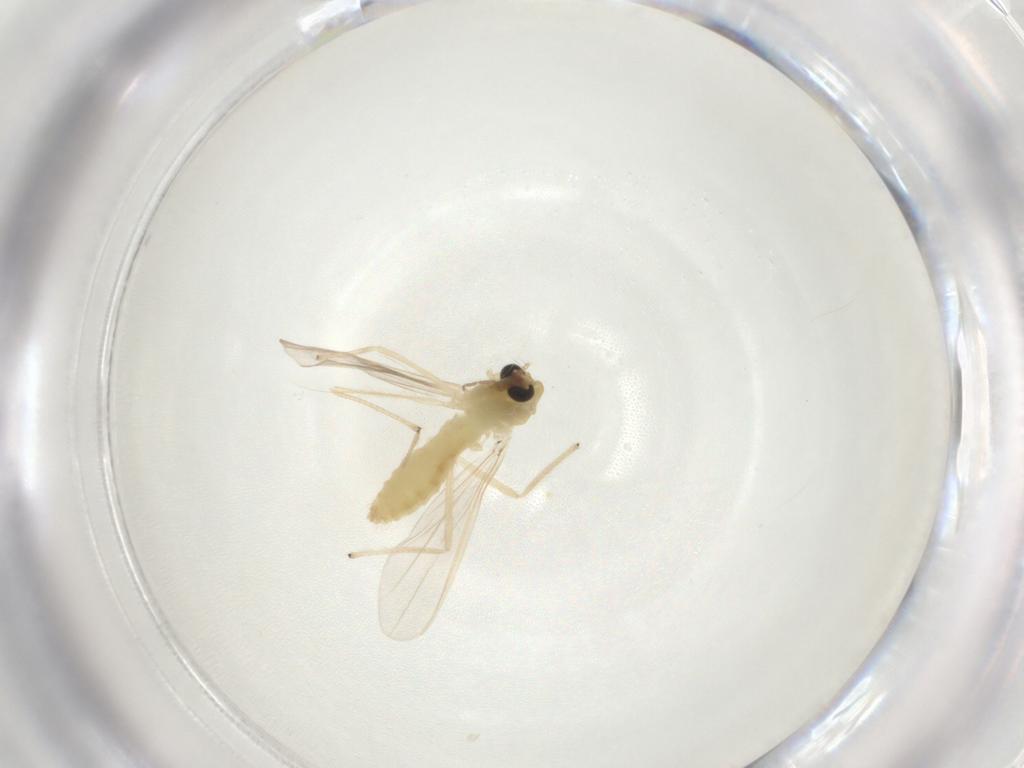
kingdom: Animalia
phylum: Arthropoda
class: Insecta
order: Diptera
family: Chironomidae
